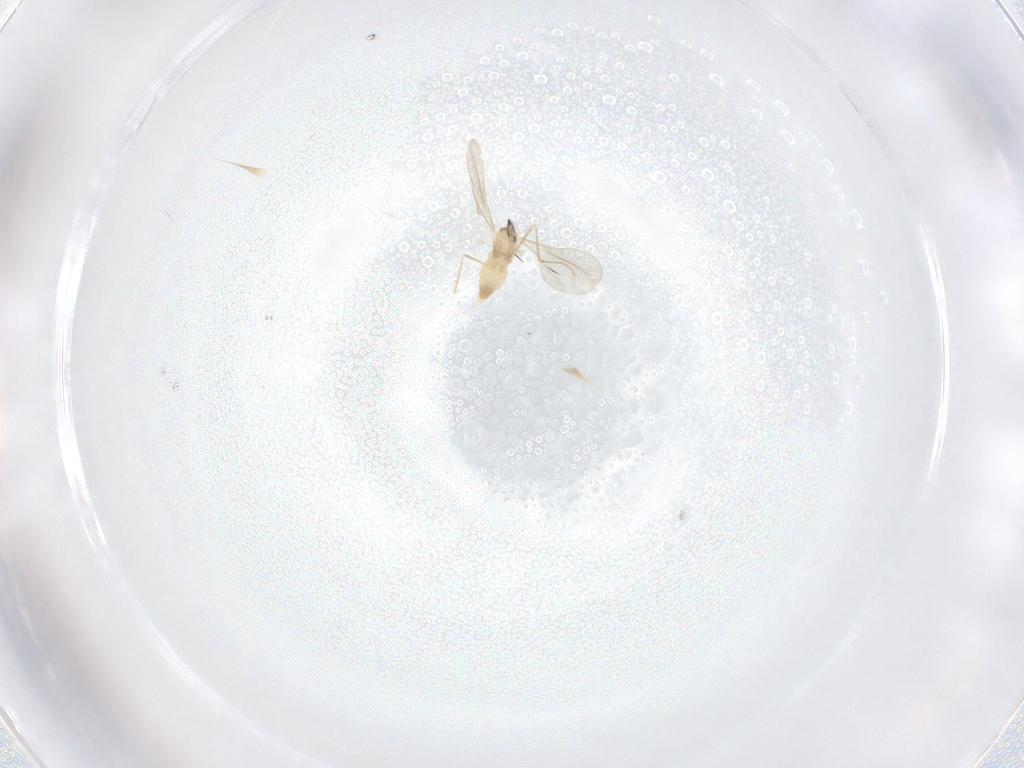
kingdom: Animalia
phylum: Arthropoda
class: Insecta
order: Diptera
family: Cecidomyiidae
